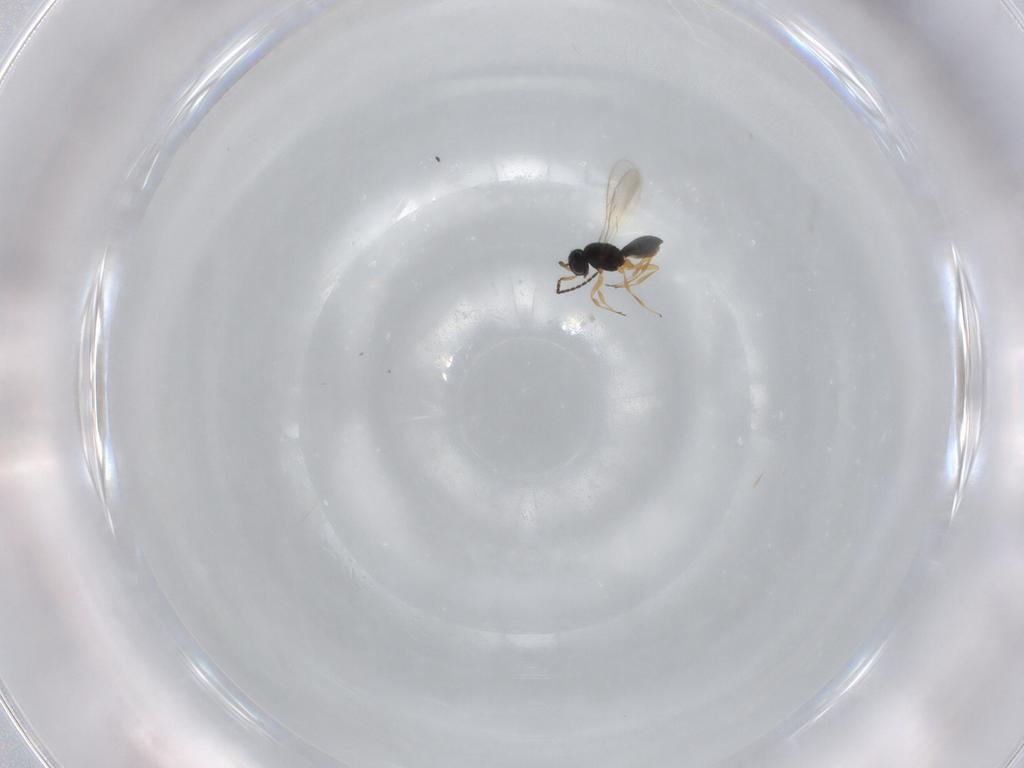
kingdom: Animalia
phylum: Arthropoda
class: Insecta
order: Hymenoptera
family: Scelionidae
